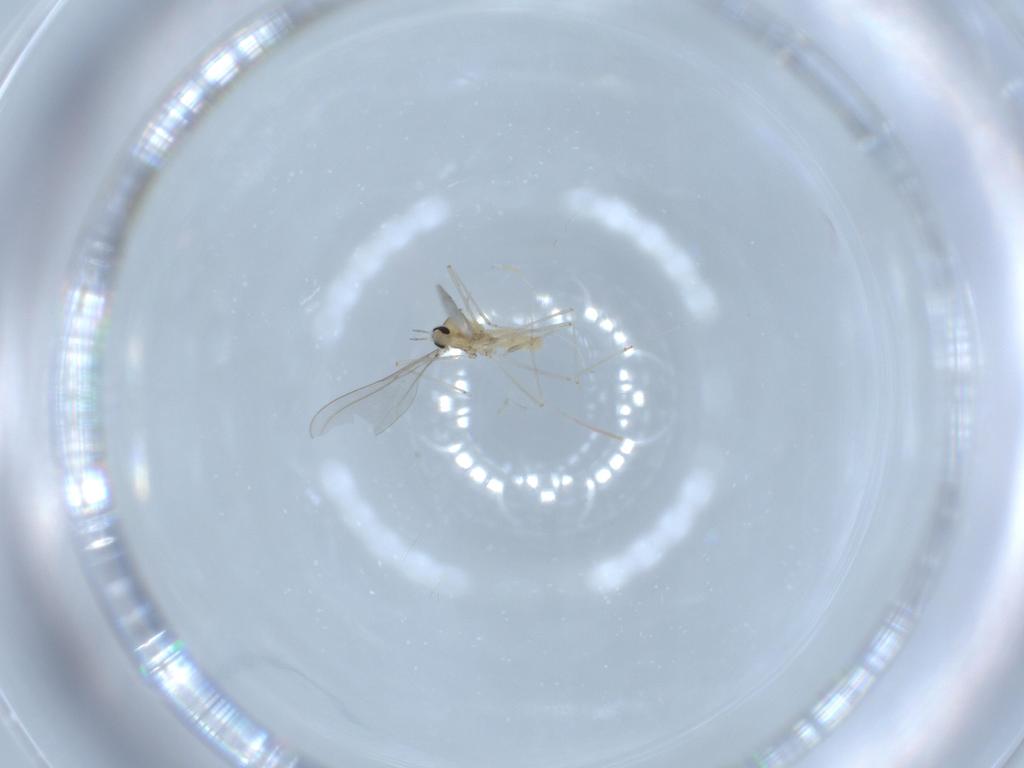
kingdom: Animalia
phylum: Arthropoda
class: Insecta
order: Diptera
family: Cecidomyiidae
